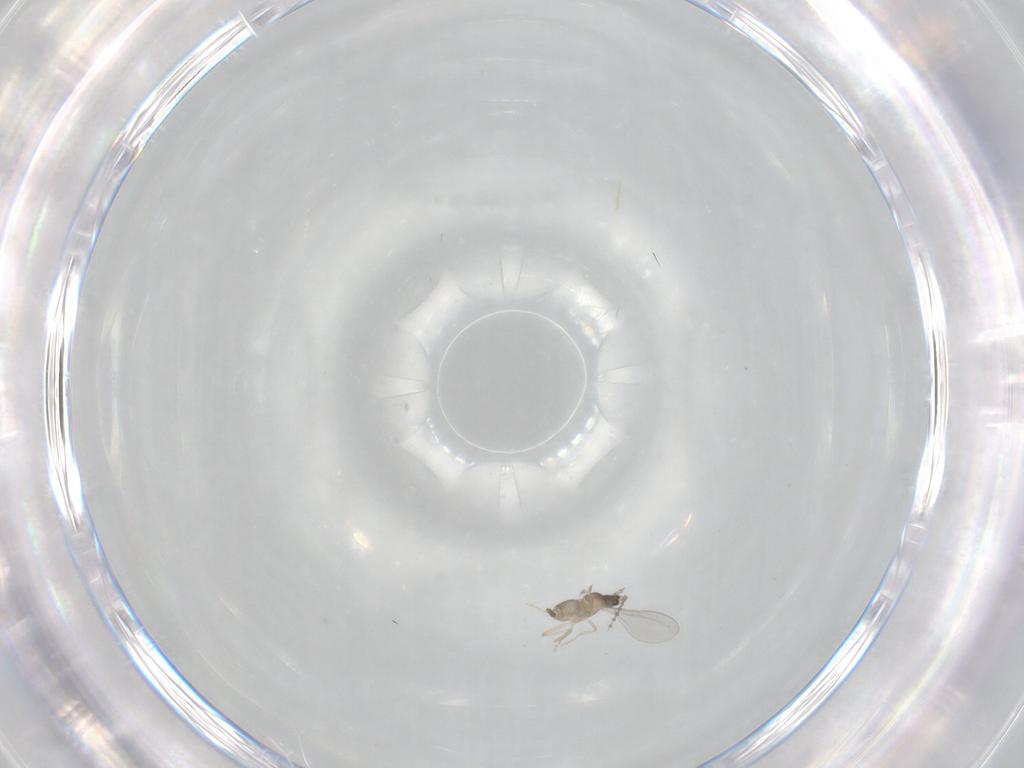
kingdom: Animalia
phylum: Arthropoda
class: Insecta
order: Diptera
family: Cecidomyiidae
